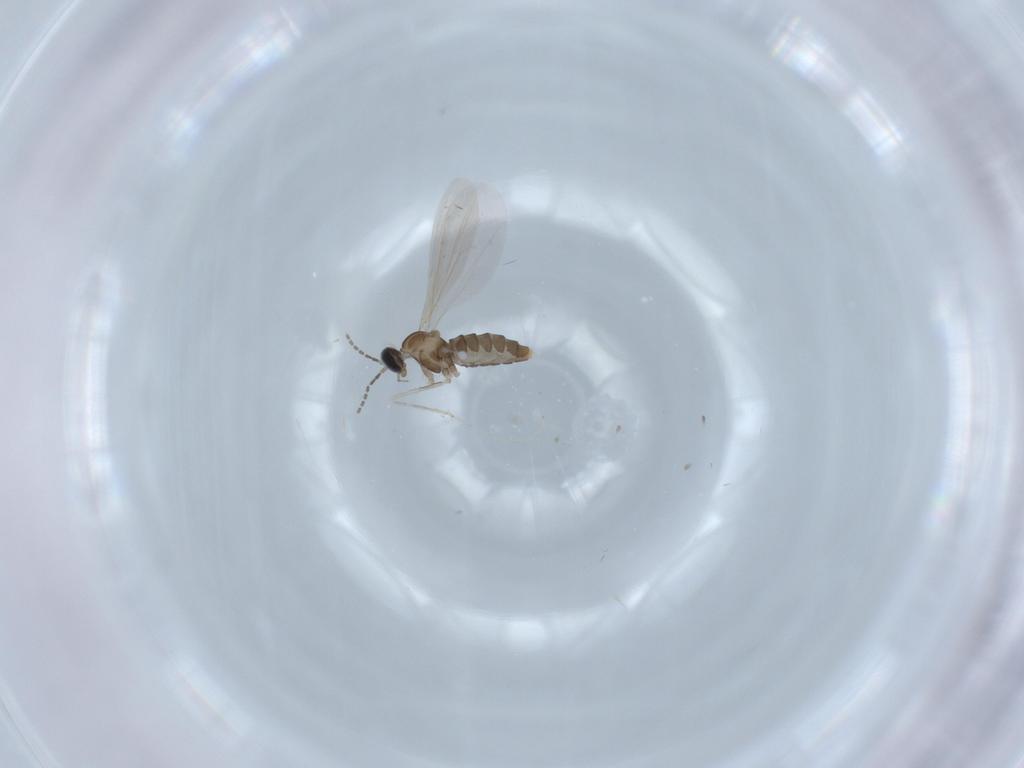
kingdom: Animalia
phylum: Arthropoda
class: Insecta
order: Diptera
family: Cecidomyiidae
